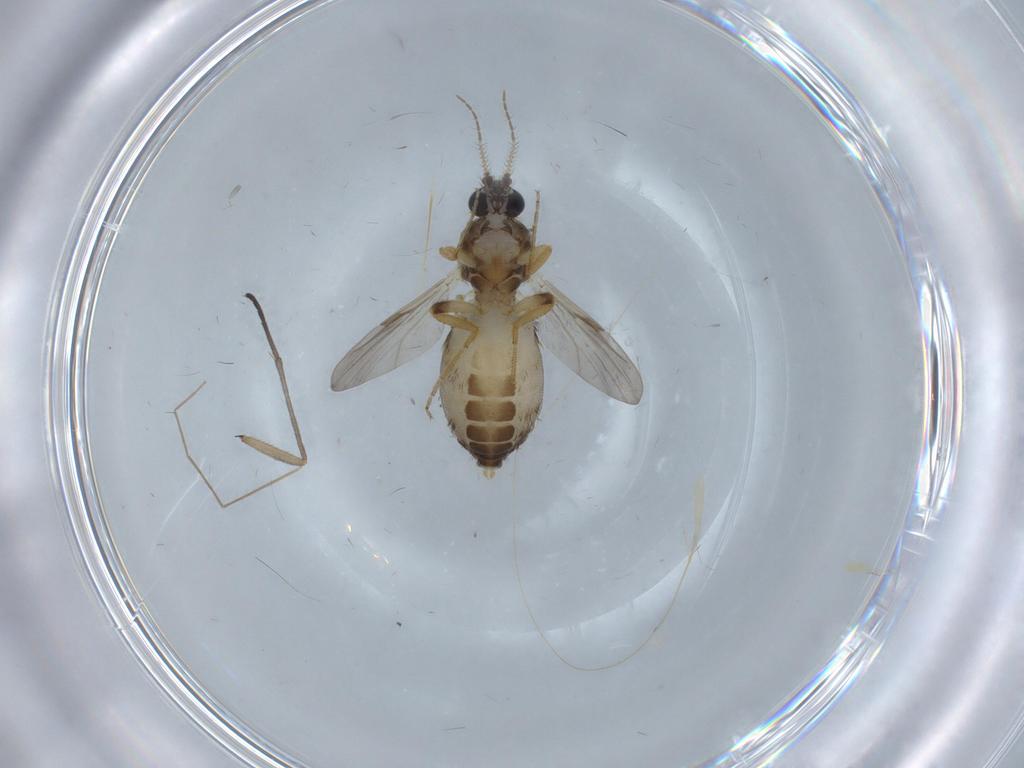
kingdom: Animalia
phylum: Arthropoda
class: Insecta
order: Diptera
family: Ceratopogonidae
